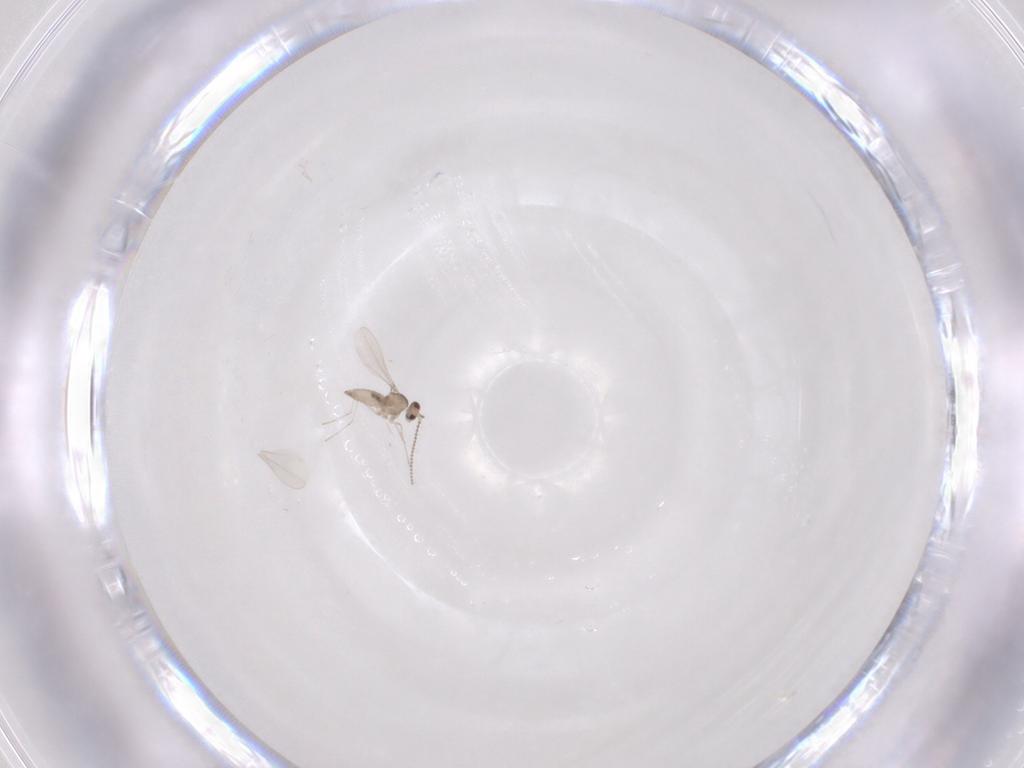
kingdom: Animalia
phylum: Arthropoda
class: Insecta
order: Diptera
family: Cecidomyiidae
